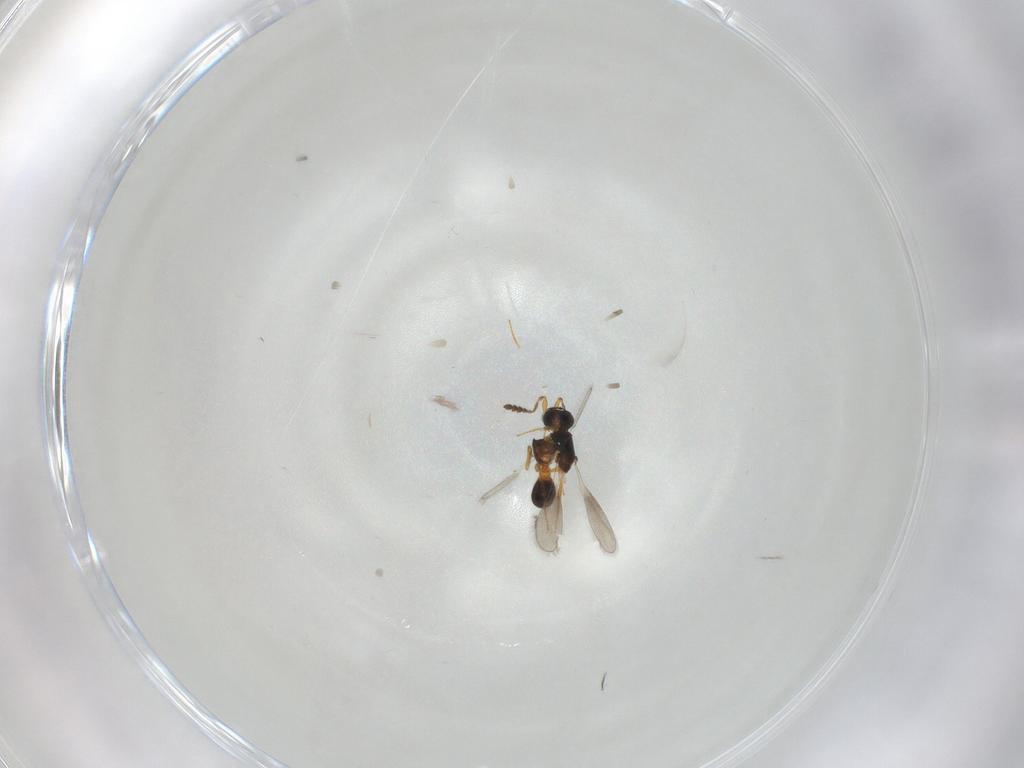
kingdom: Animalia
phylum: Arthropoda
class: Insecta
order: Hymenoptera
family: Platygastridae
